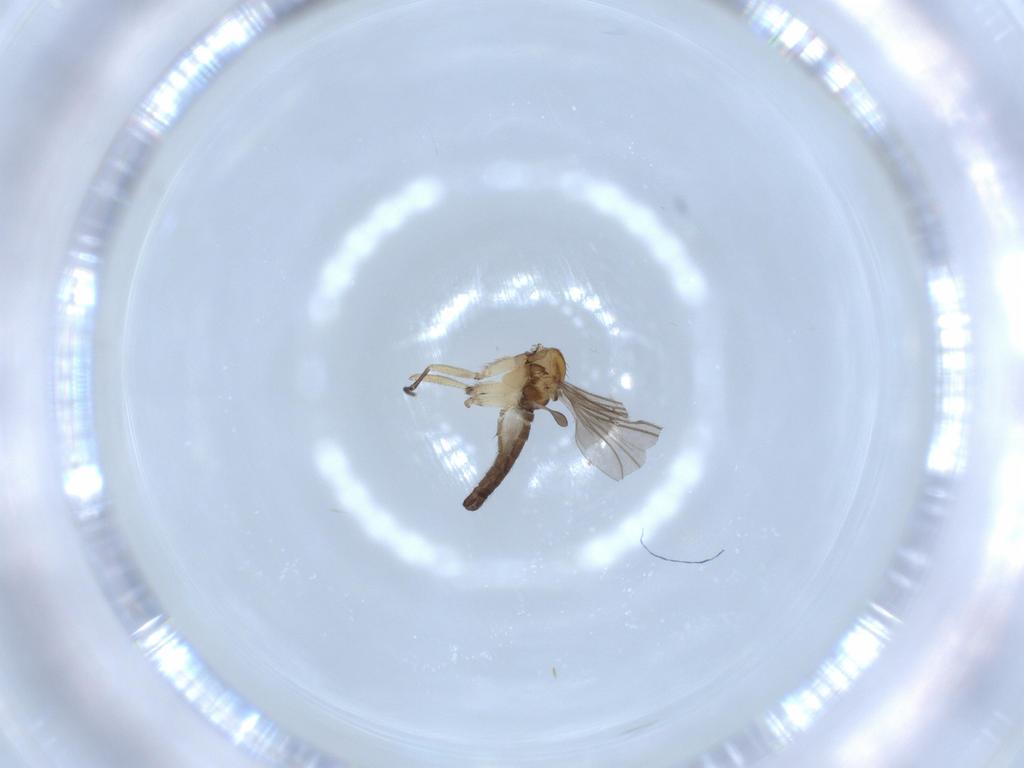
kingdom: Animalia
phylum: Arthropoda
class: Insecta
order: Diptera
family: Sciaridae
